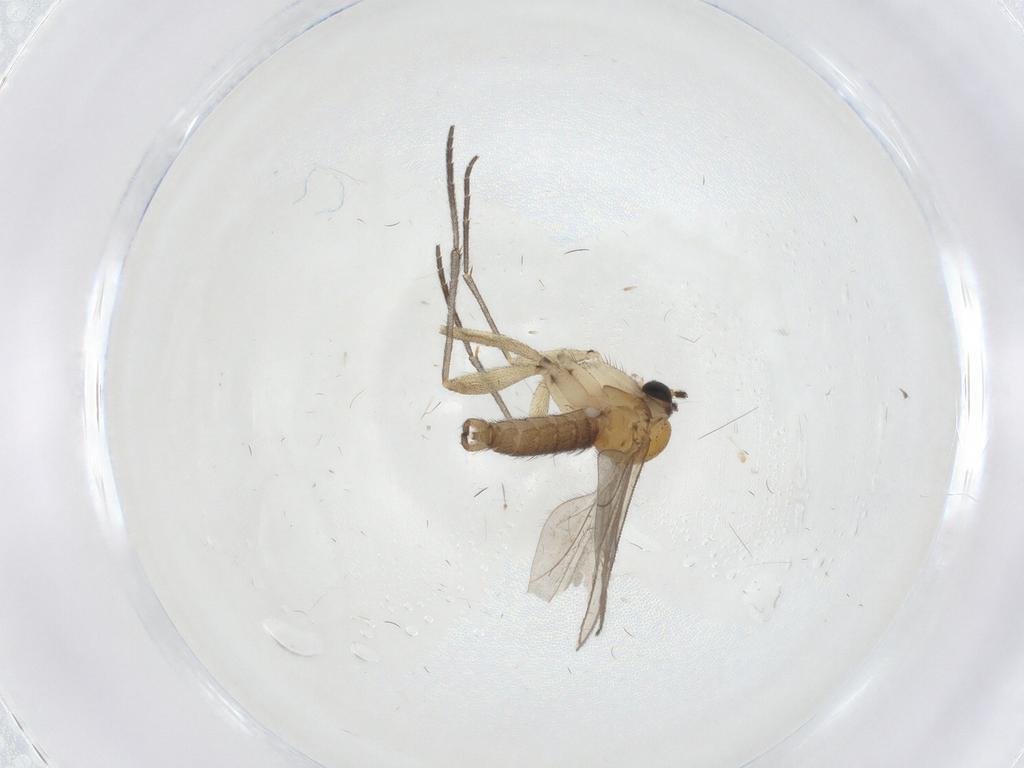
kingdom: Animalia
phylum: Arthropoda
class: Insecta
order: Diptera
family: Sciaridae
